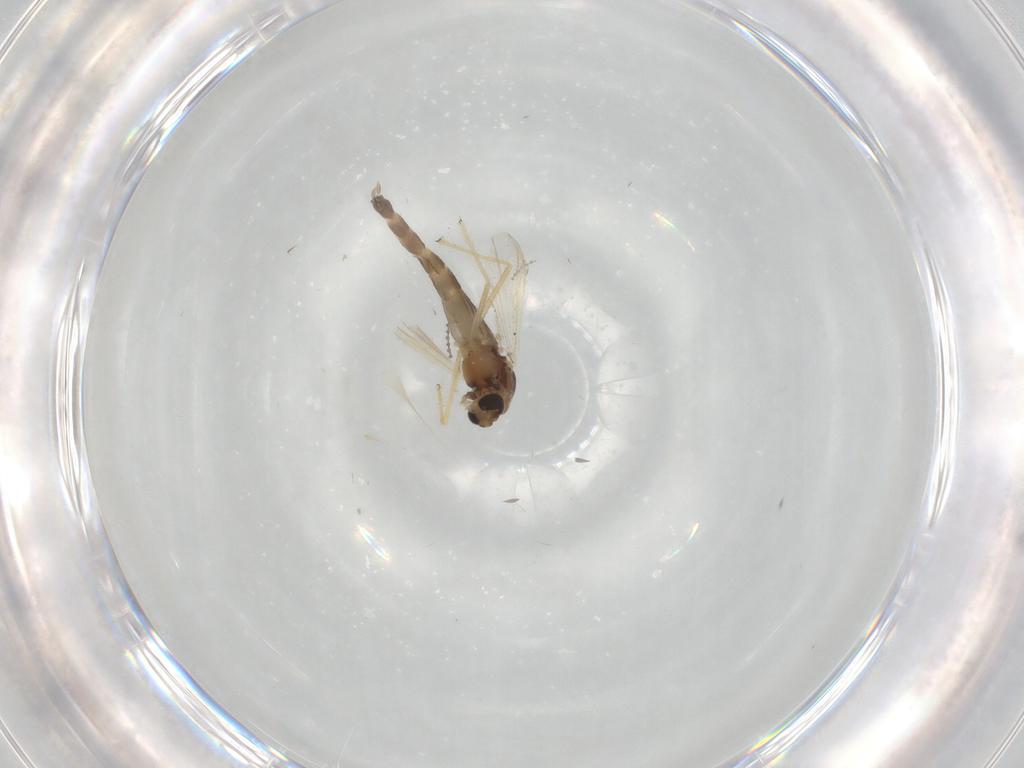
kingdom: Animalia
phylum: Arthropoda
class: Insecta
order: Diptera
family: Chironomidae
